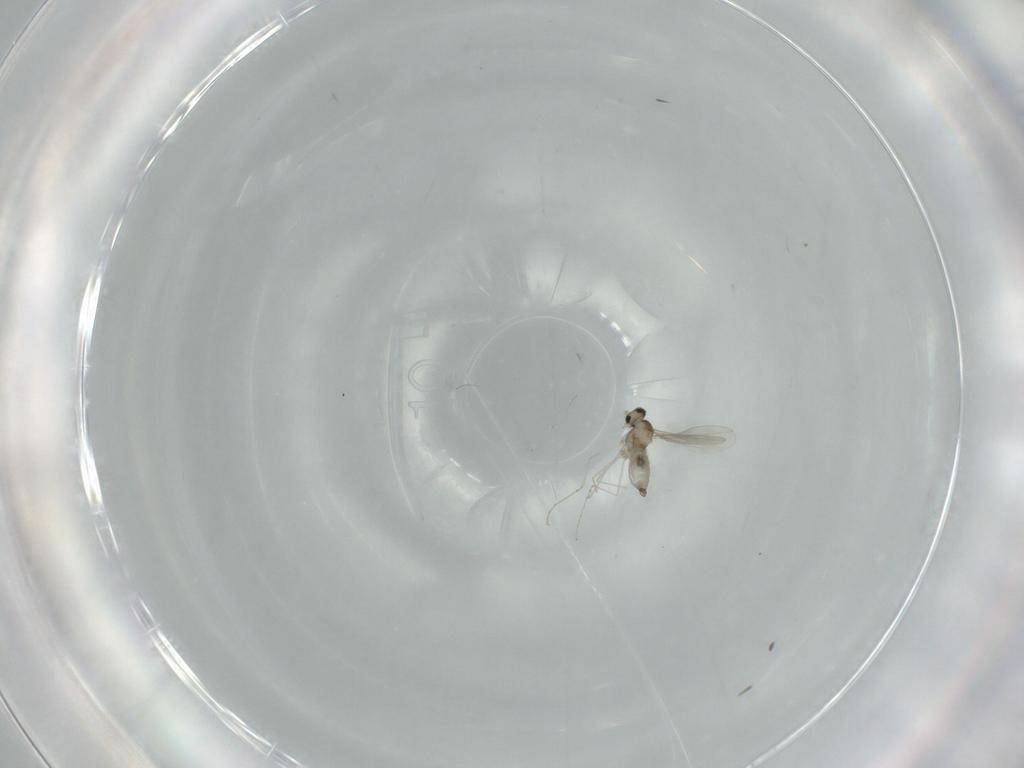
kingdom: Animalia
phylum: Arthropoda
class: Insecta
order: Diptera
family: Cecidomyiidae
